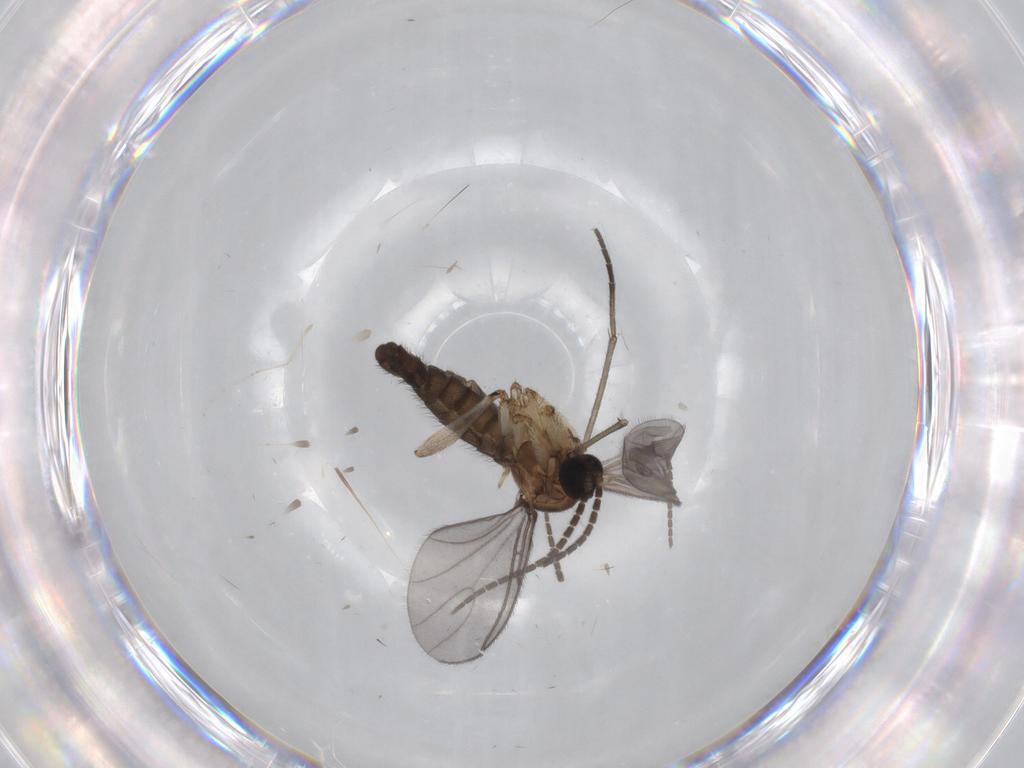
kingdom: Animalia
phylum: Arthropoda
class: Insecta
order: Diptera
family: Sciaridae
